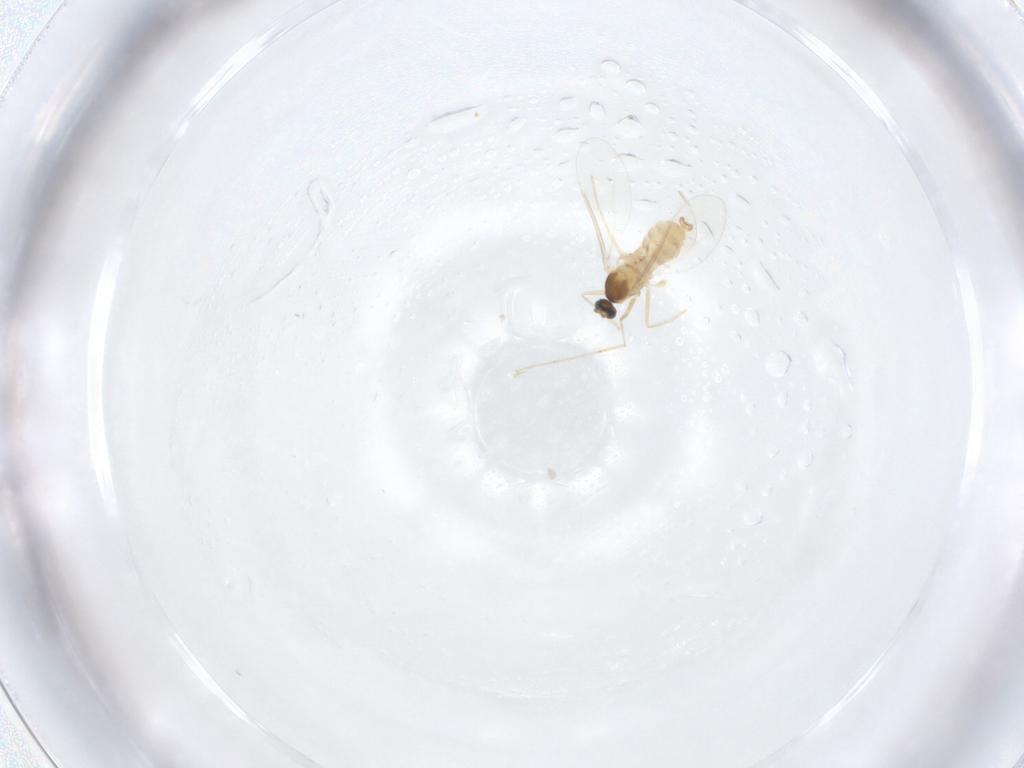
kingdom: Animalia
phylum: Arthropoda
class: Insecta
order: Diptera
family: Cecidomyiidae
